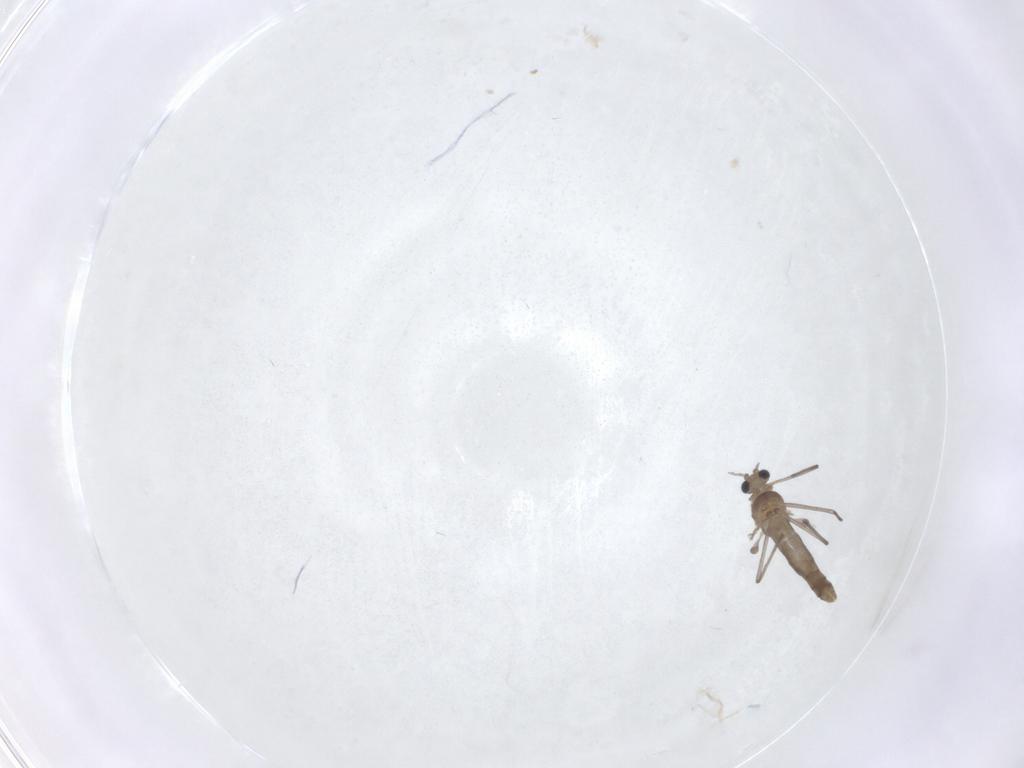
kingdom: Animalia
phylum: Arthropoda
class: Insecta
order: Diptera
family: Chironomidae
